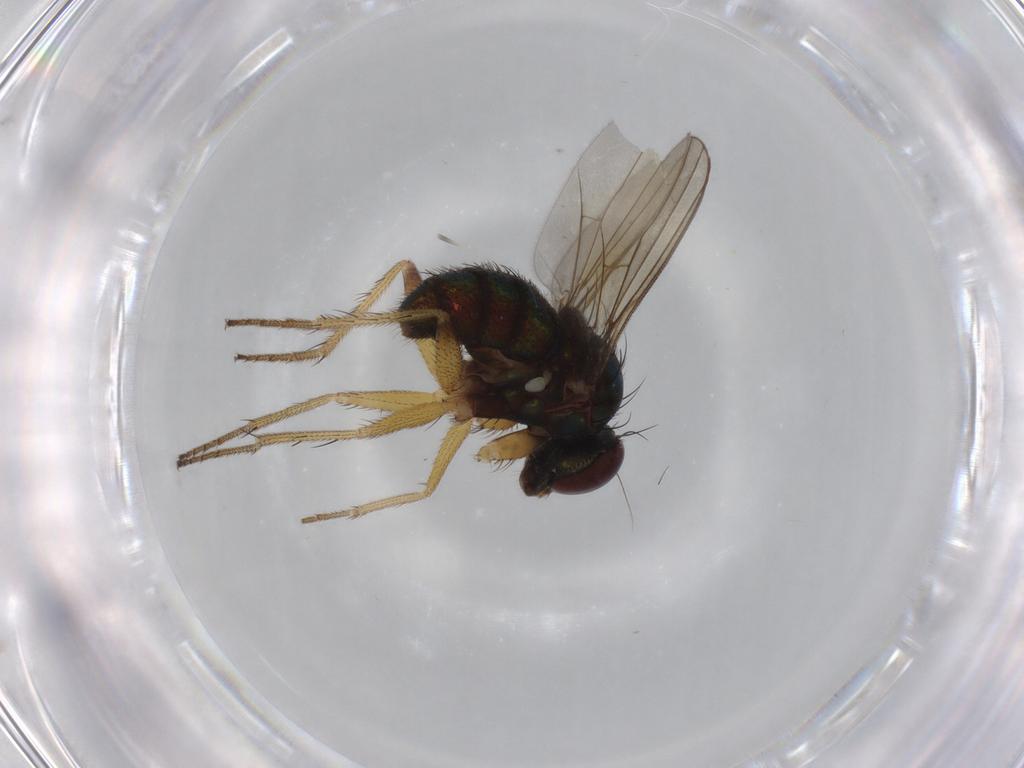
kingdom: Animalia
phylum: Arthropoda
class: Insecta
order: Diptera
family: Dolichopodidae
